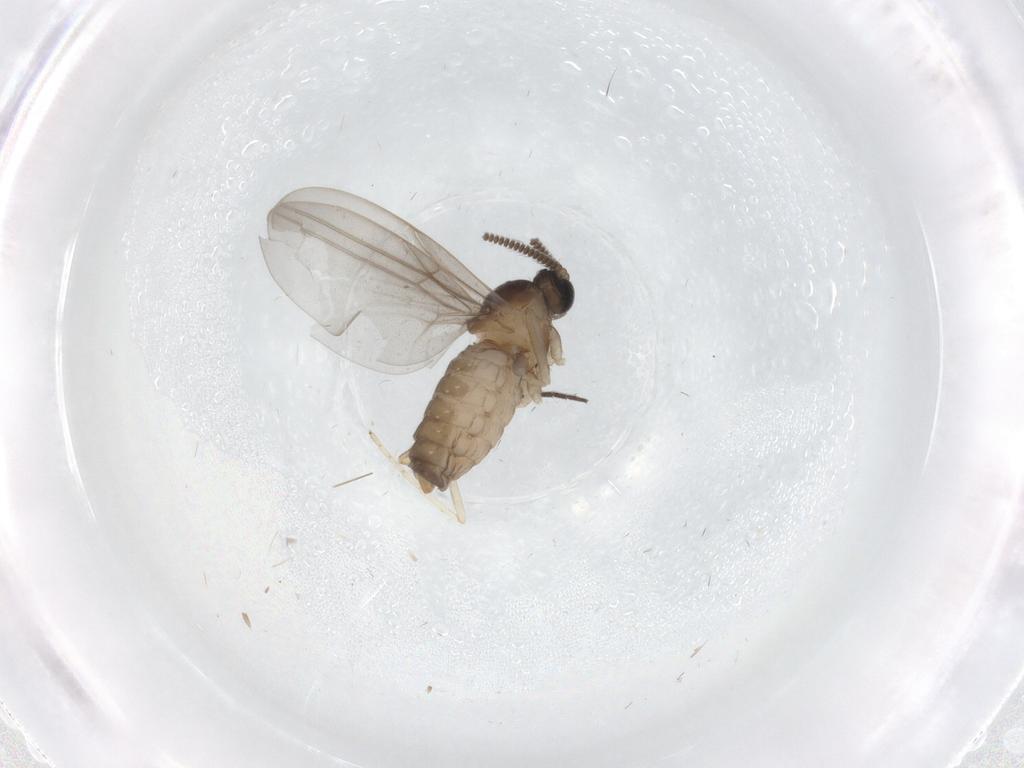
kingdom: Animalia
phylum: Arthropoda
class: Insecta
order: Diptera
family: Cecidomyiidae
